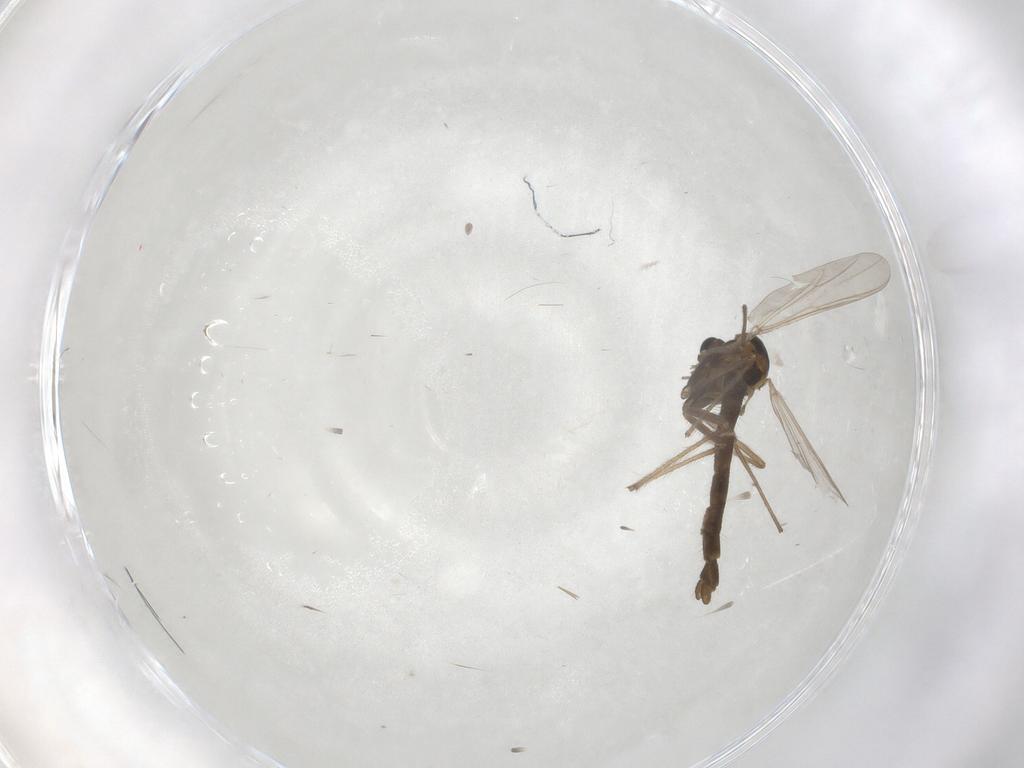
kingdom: Animalia
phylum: Arthropoda
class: Insecta
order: Diptera
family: Chironomidae
